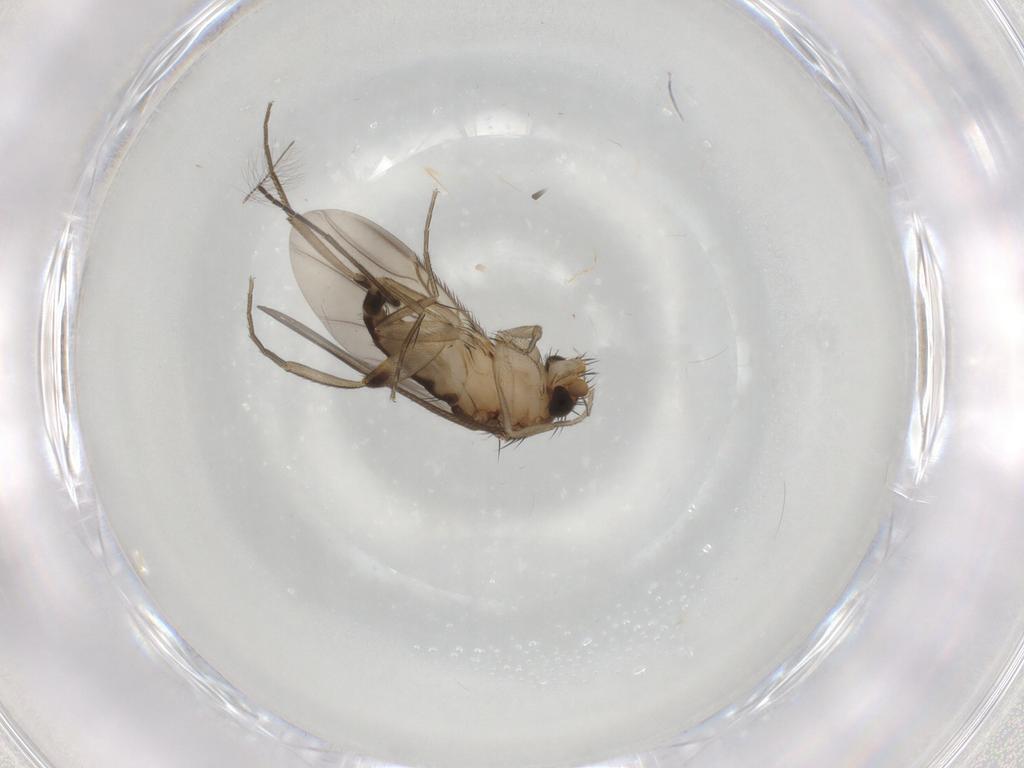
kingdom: Animalia
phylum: Arthropoda
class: Insecta
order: Diptera
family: Phoridae
